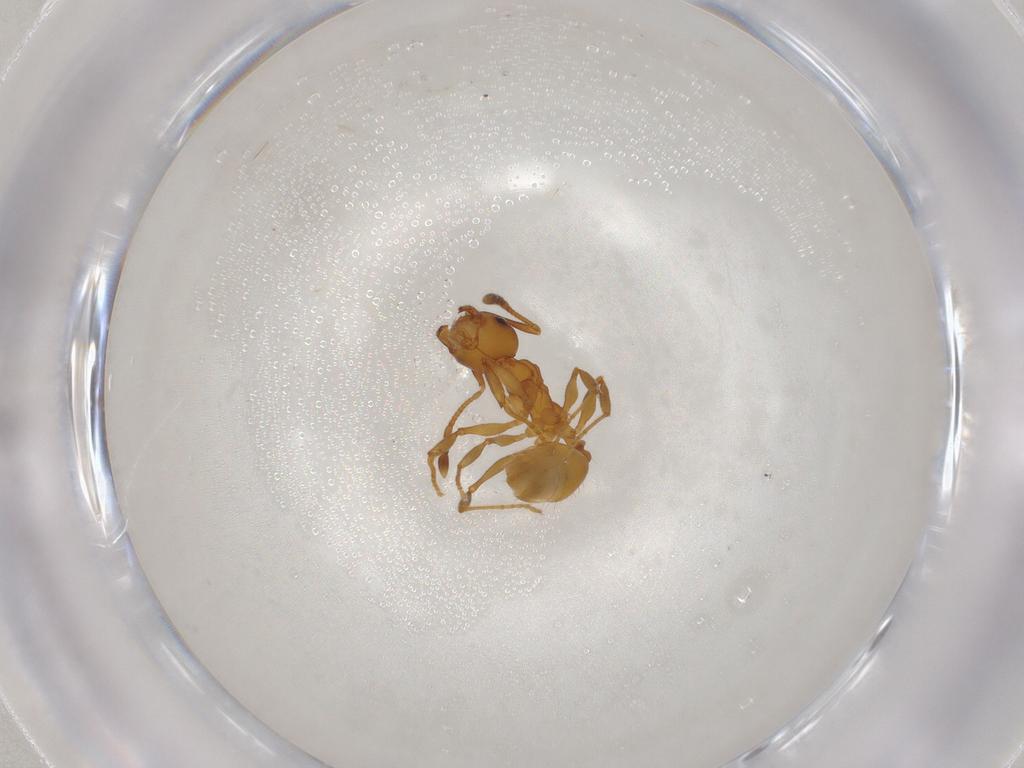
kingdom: Animalia
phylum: Arthropoda
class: Insecta
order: Hymenoptera
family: Formicidae
